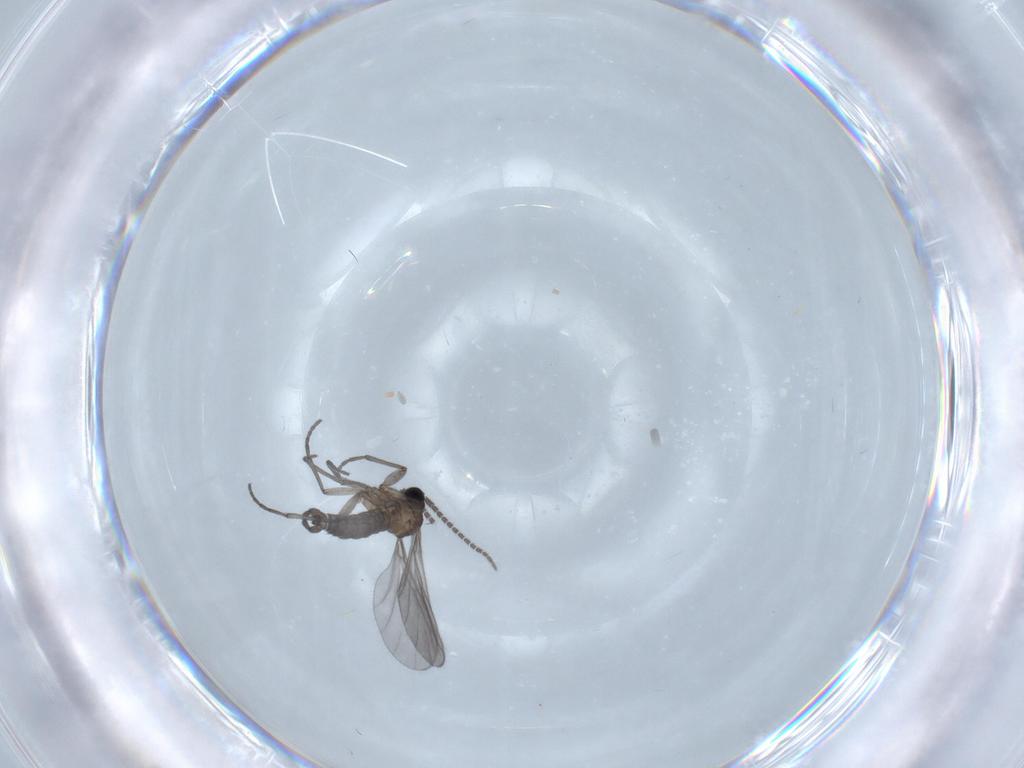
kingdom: Animalia
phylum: Arthropoda
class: Insecta
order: Diptera
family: Sciaridae
